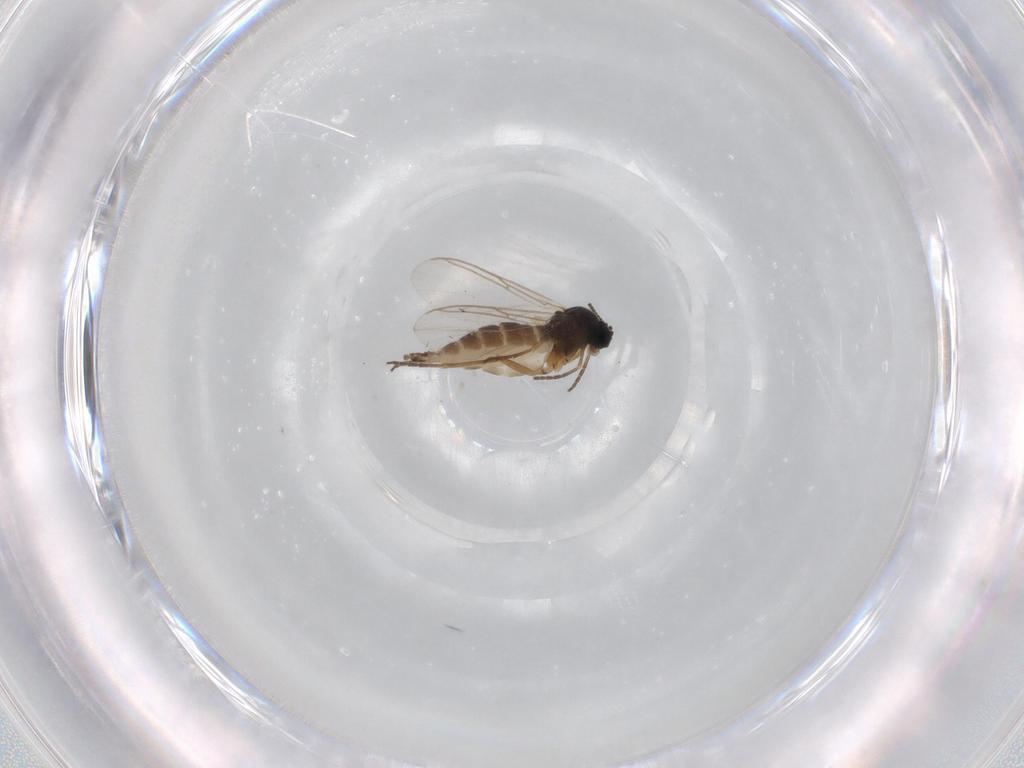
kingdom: Animalia
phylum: Arthropoda
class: Insecta
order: Diptera
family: Sciaridae
